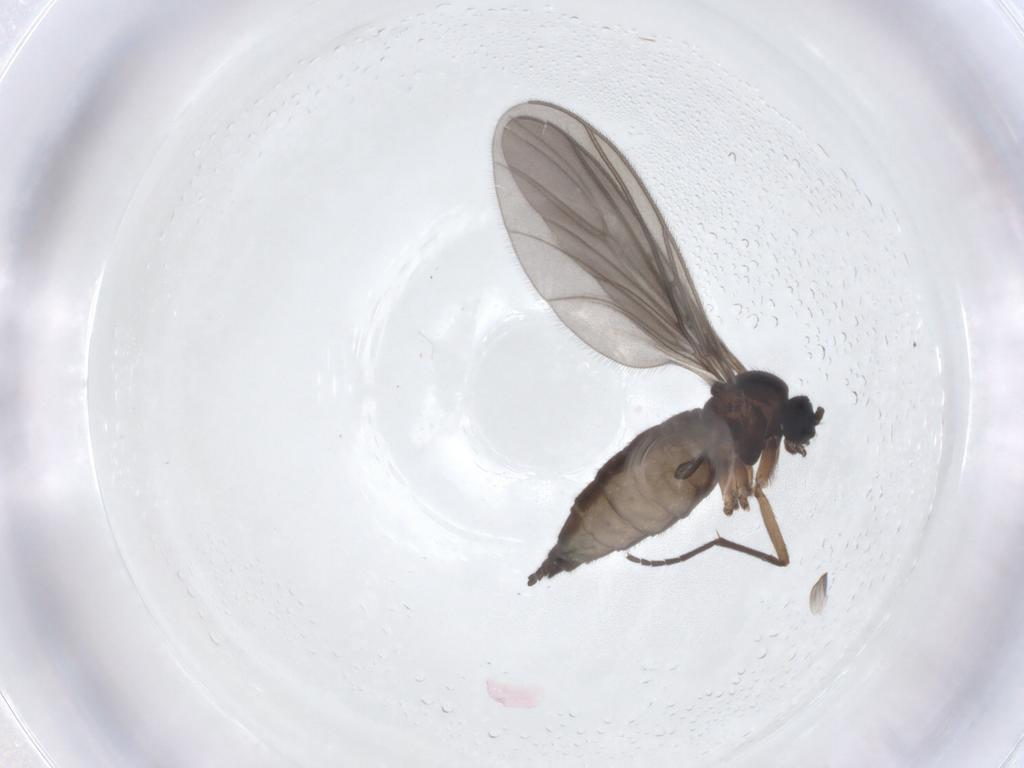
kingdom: Animalia
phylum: Arthropoda
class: Insecta
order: Diptera
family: Sciaridae
